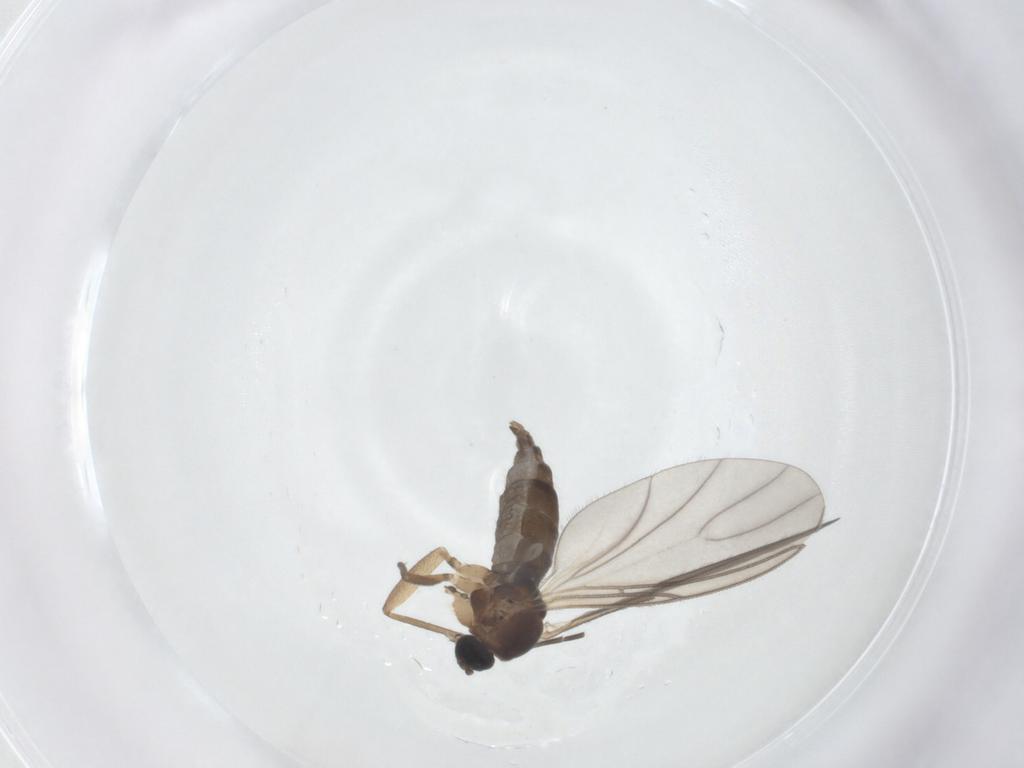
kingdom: Animalia
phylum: Arthropoda
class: Insecta
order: Diptera
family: Sciaridae
